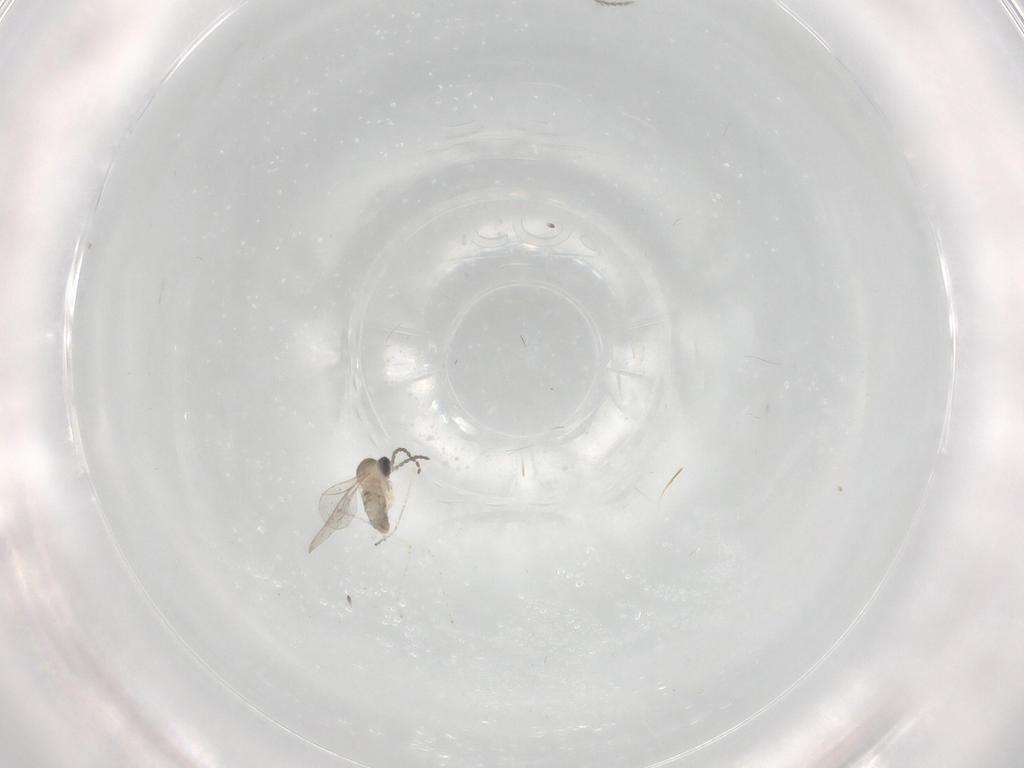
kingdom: Animalia
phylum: Arthropoda
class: Insecta
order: Diptera
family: Cecidomyiidae
